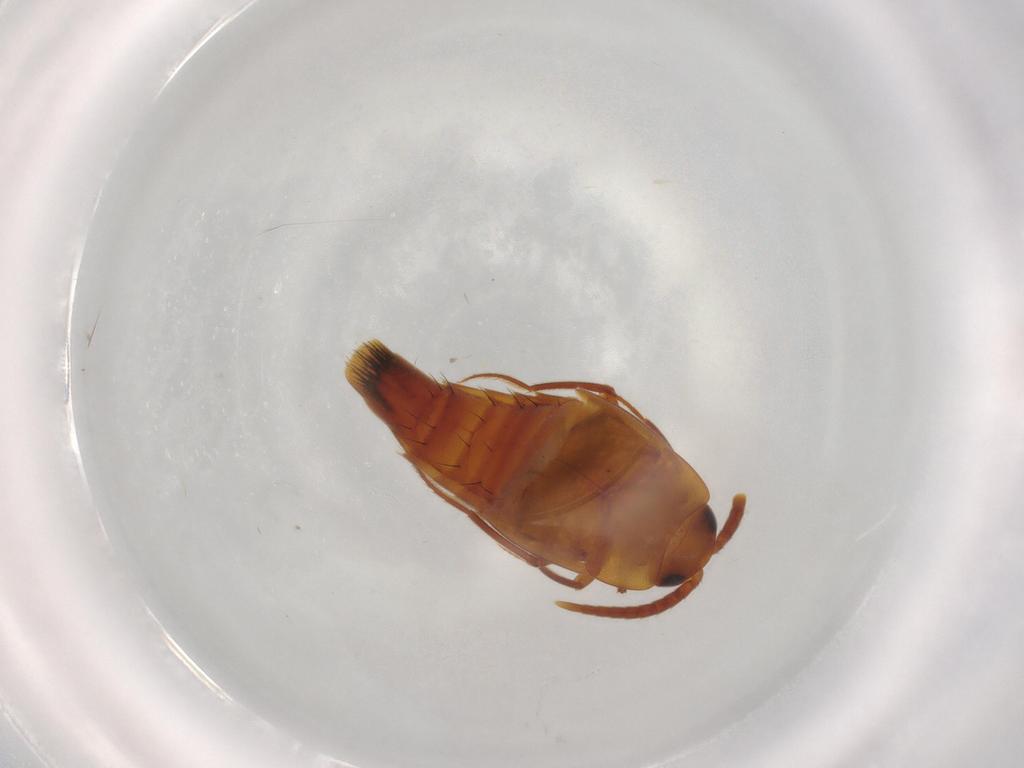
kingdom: Animalia
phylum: Arthropoda
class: Insecta
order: Coleoptera
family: Staphylinidae
